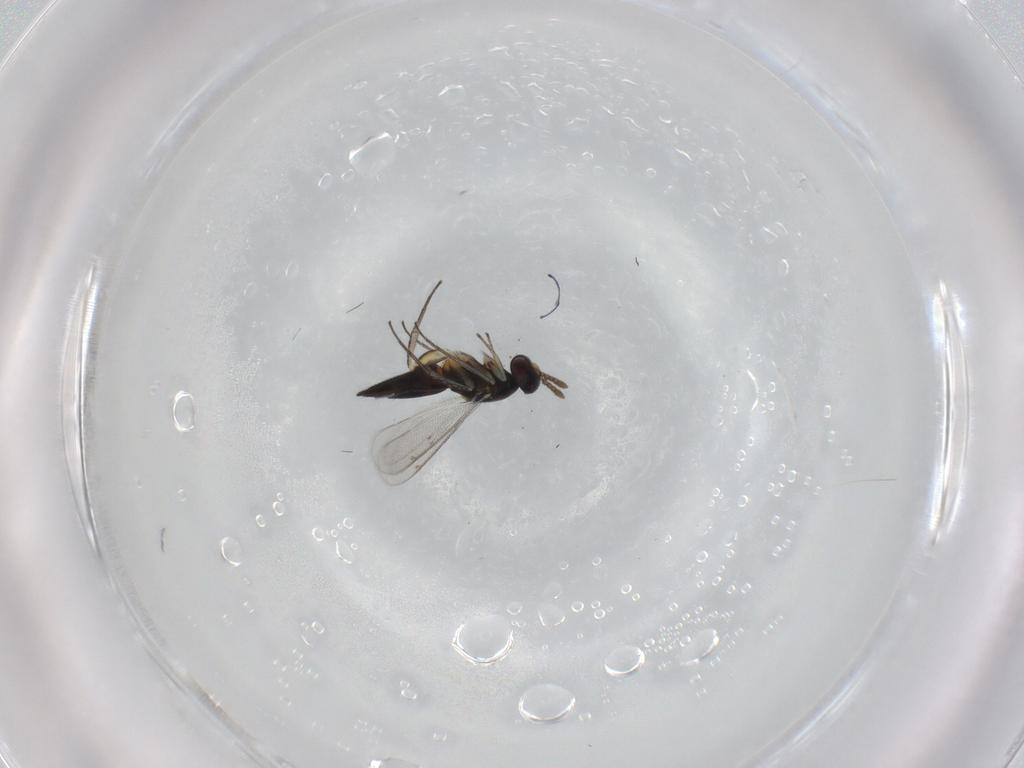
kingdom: Animalia
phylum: Arthropoda
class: Insecta
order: Hymenoptera
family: Eulophidae
